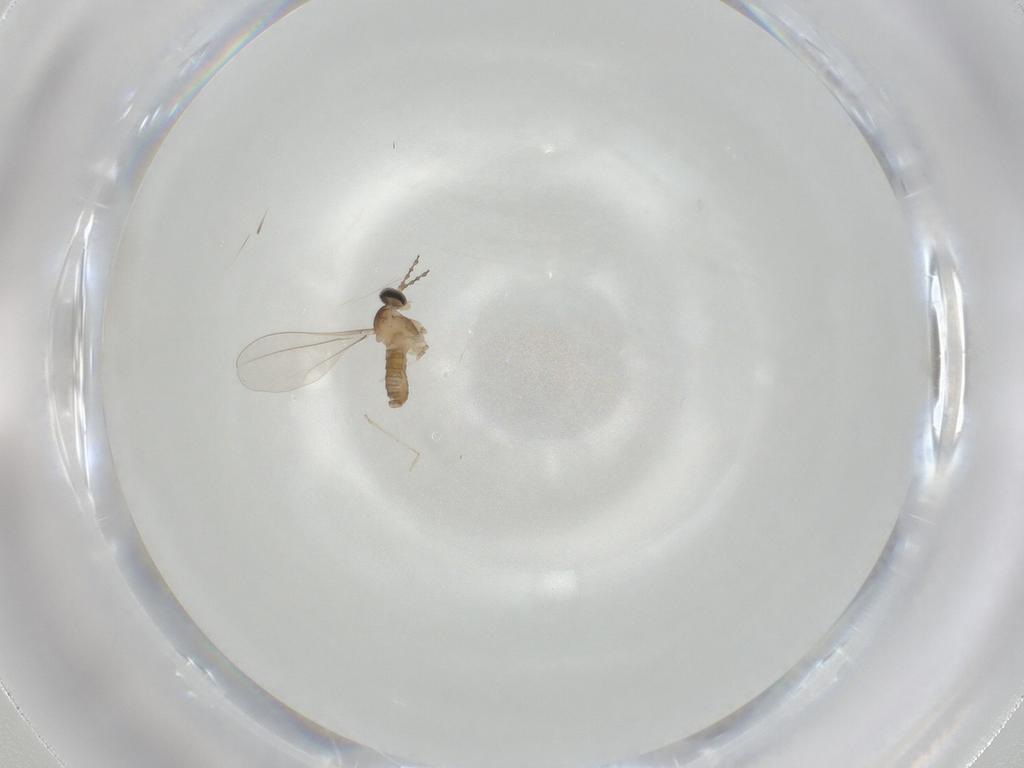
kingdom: Animalia
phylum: Arthropoda
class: Insecta
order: Diptera
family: Cecidomyiidae
